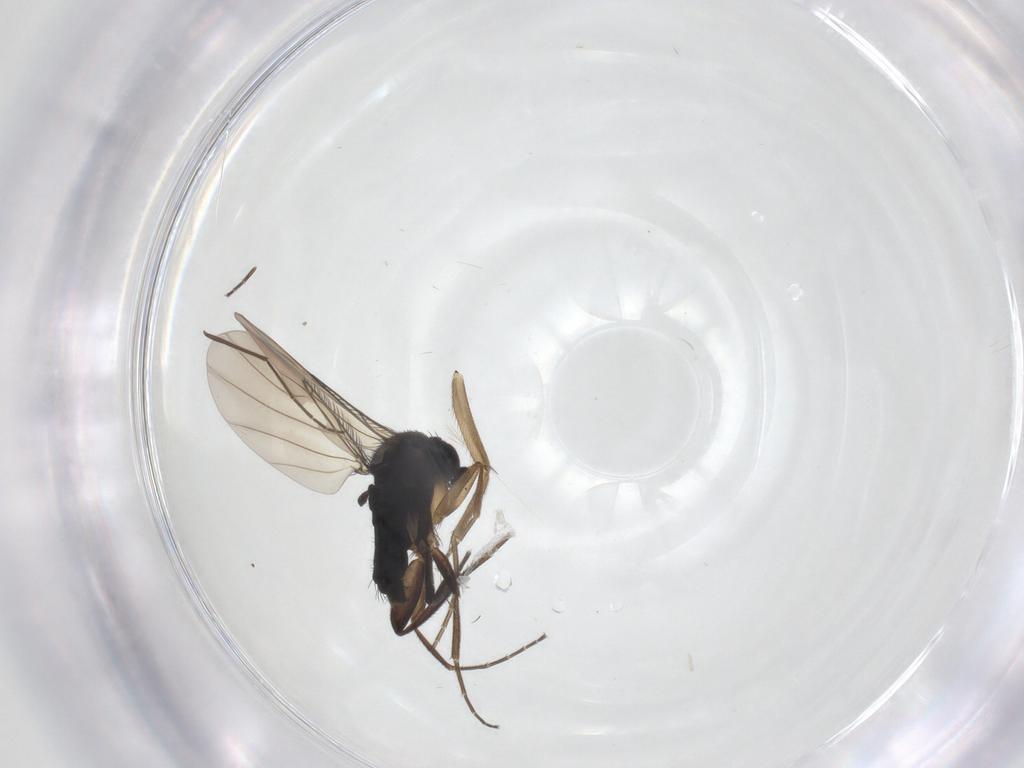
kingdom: Animalia
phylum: Arthropoda
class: Insecta
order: Diptera
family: Phoridae
